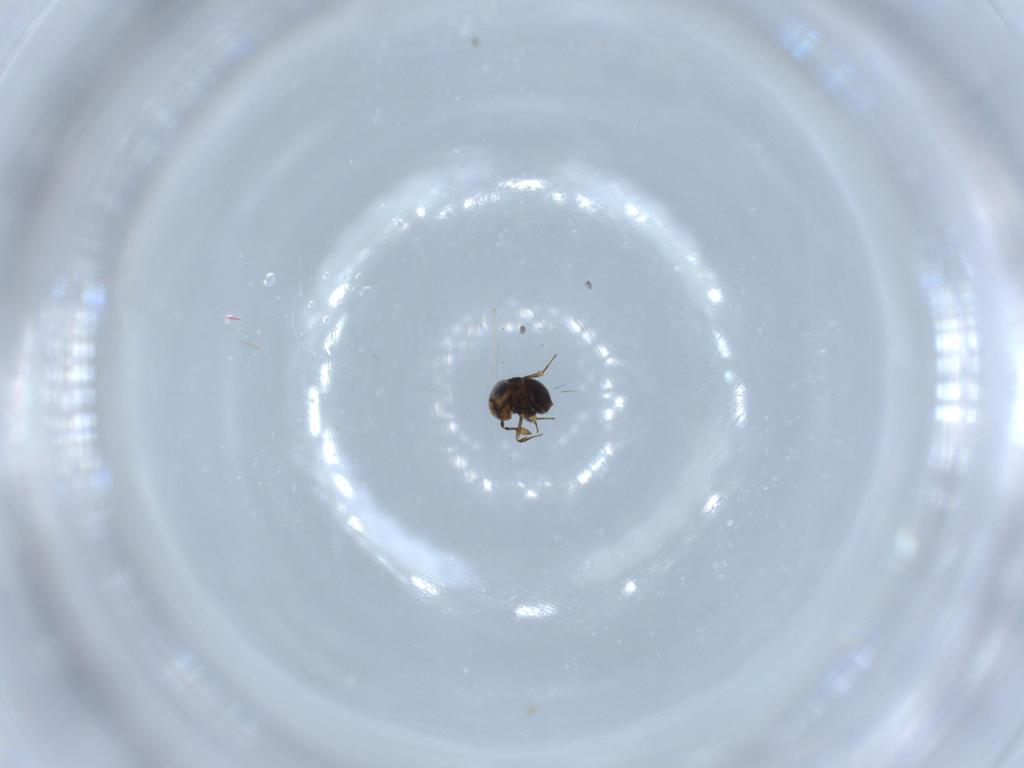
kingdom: Animalia
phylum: Arthropoda
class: Insecta
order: Hymenoptera
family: Scelionidae
